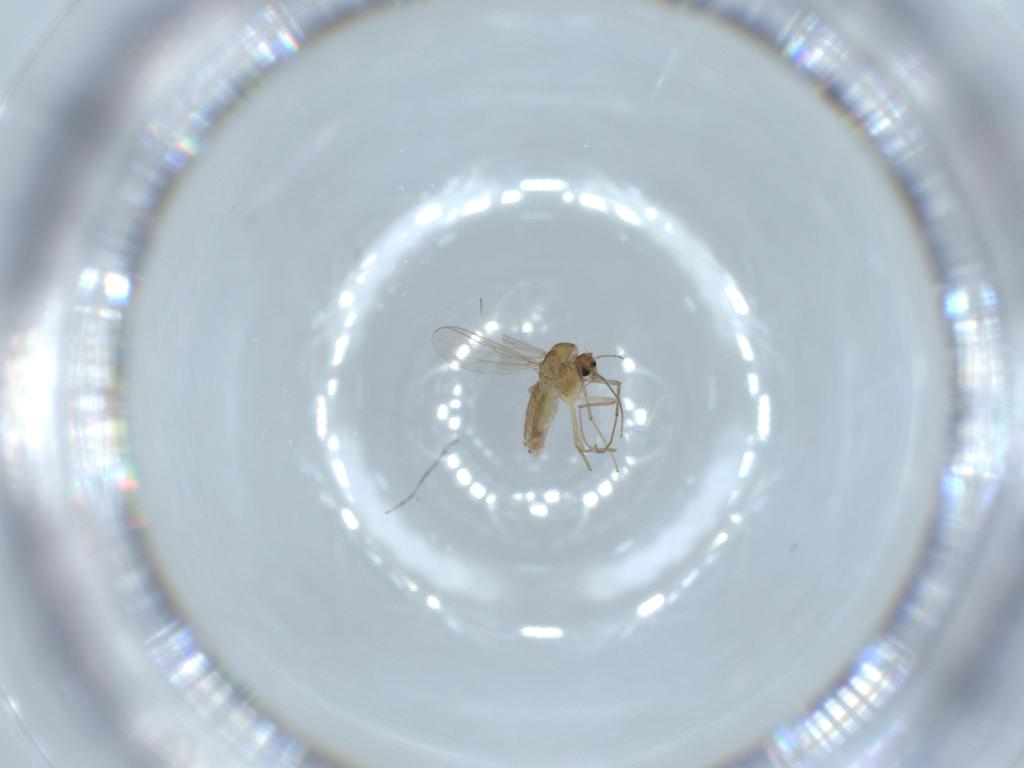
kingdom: Animalia
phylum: Arthropoda
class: Insecta
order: Diptera
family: Chironomidae
